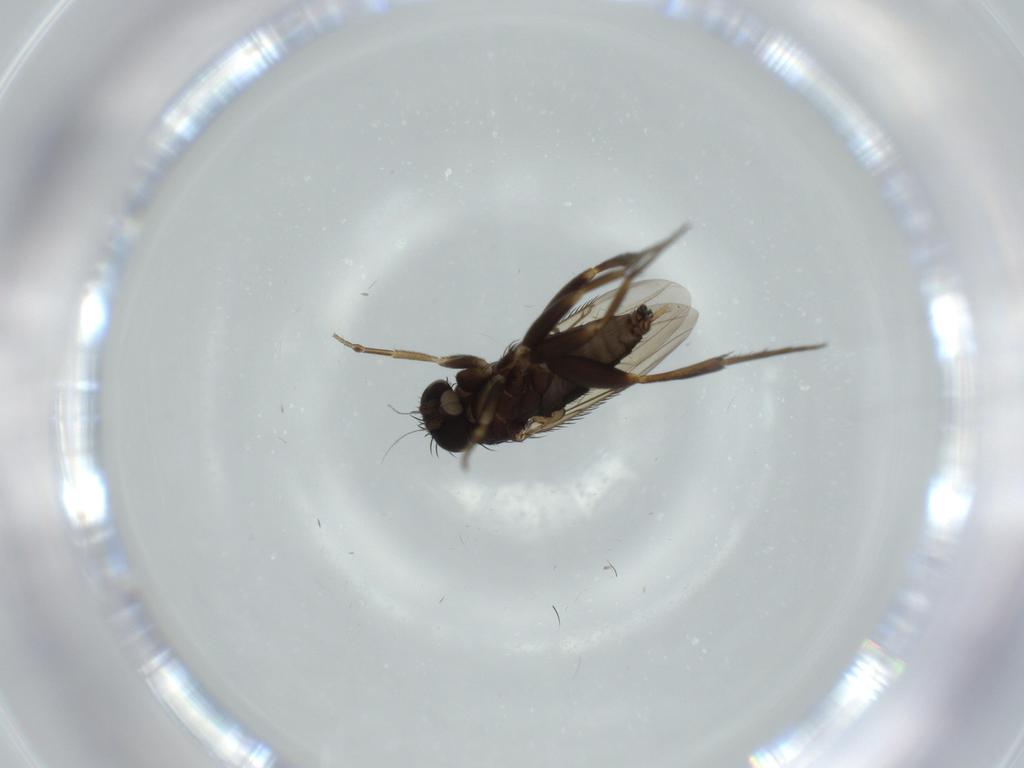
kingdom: Animalia
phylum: Arthropoda
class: Insecta
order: Diptera
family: Phoridae
